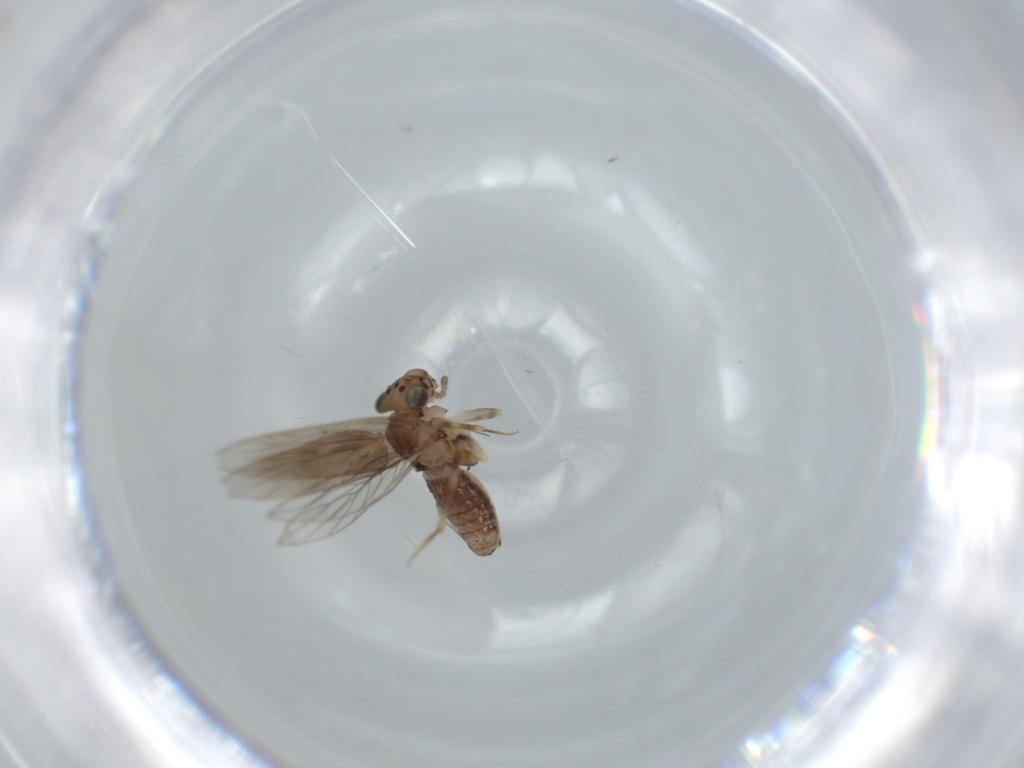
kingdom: Animalia
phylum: Arthropoda
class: Insecta
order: Psocodea
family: Lepidopsocidae
